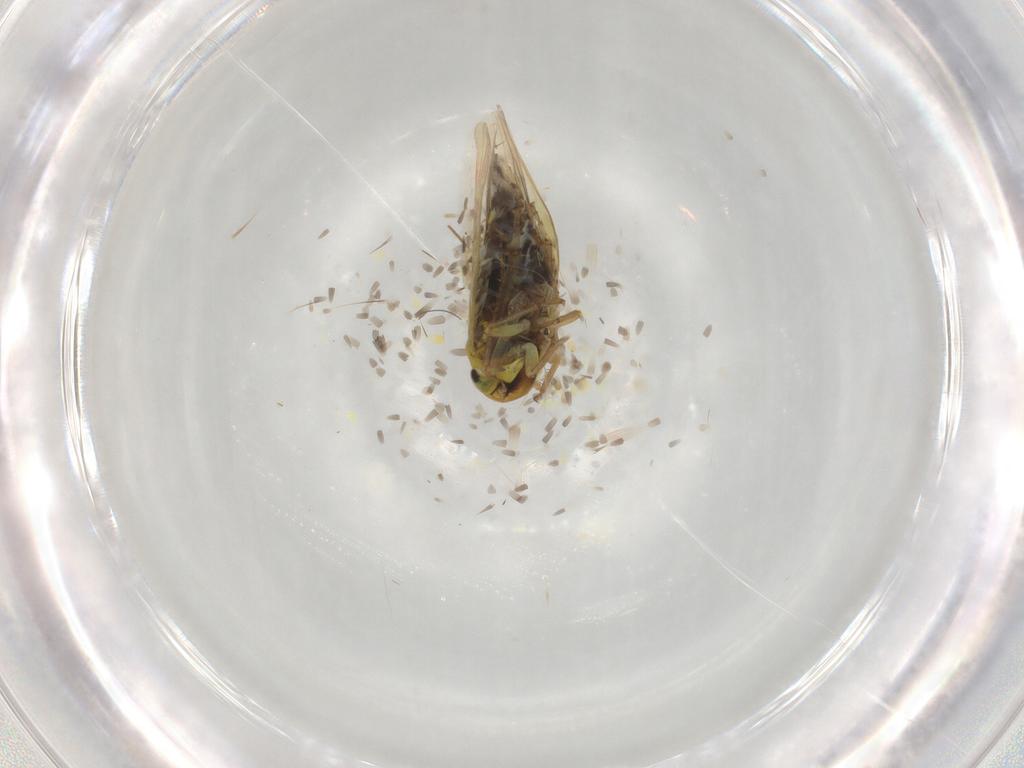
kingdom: Animalia
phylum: Arthropoda
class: Insecta
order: Hemiptera
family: Cicadellidae
